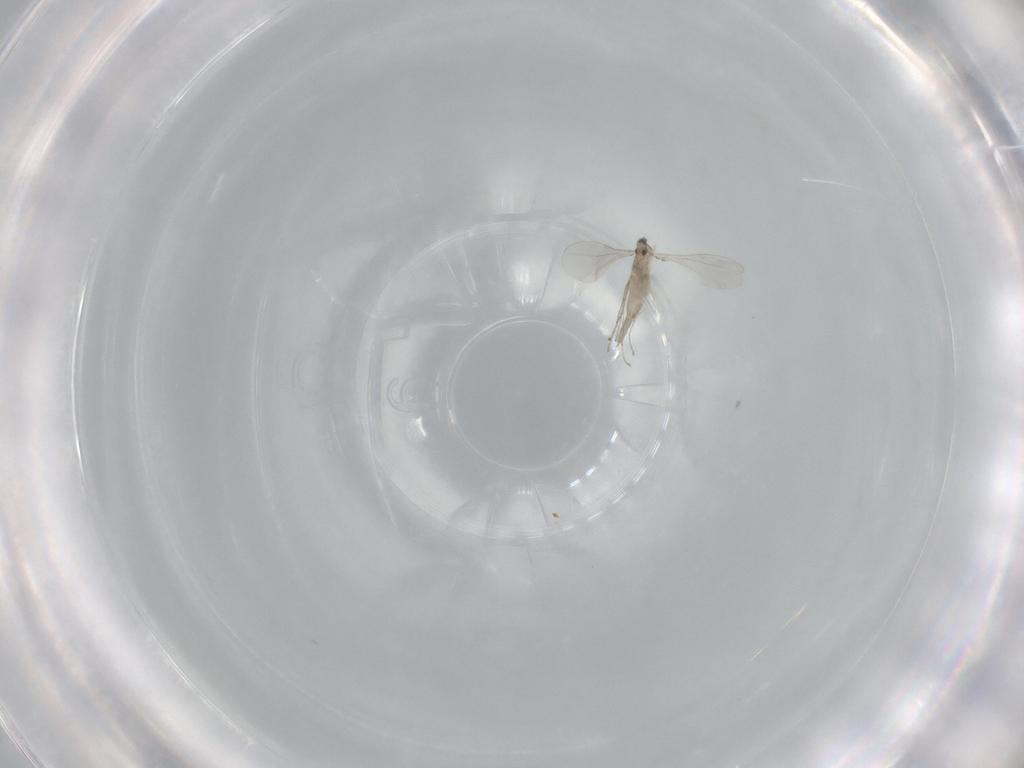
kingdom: Animalia
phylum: Arthropoda
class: Insecta
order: Diptera
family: Cecidomyiidae
